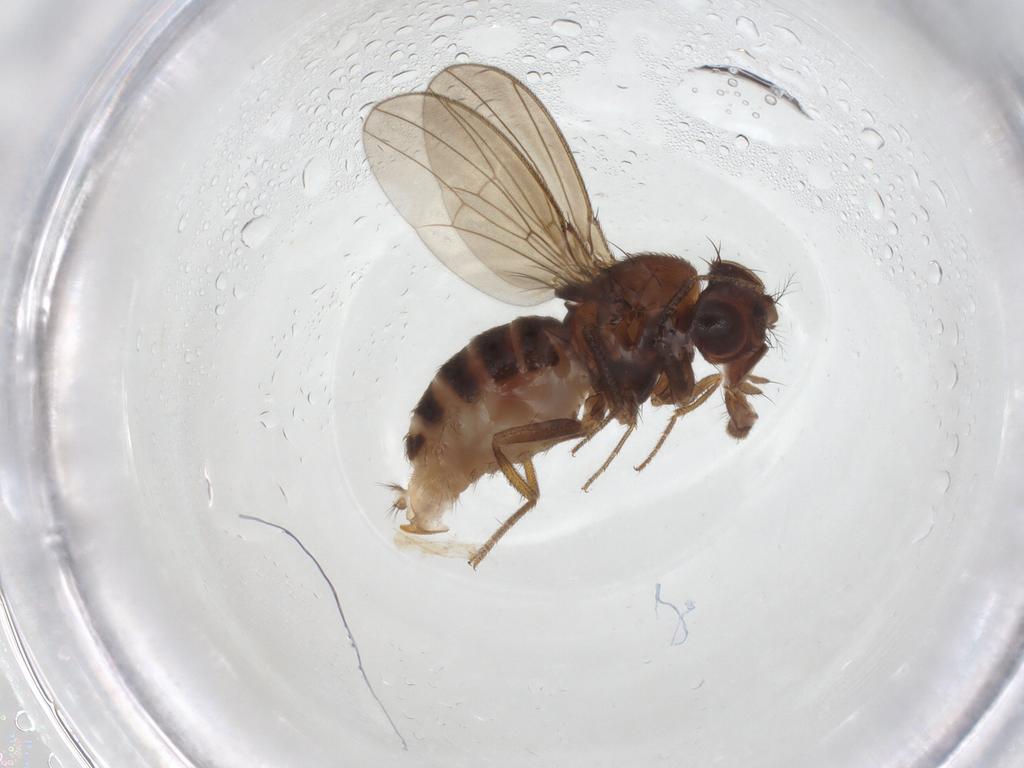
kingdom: Animalia
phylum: Arthropoda
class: Insecta
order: Diptera
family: Drosophilidae
